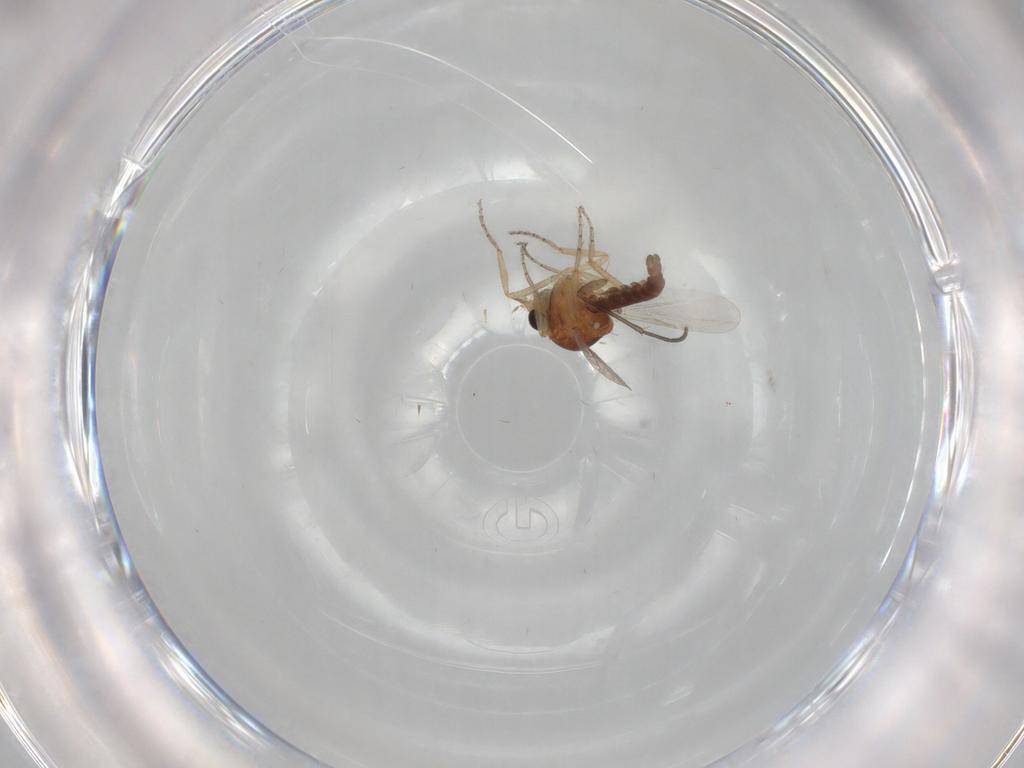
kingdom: Animalia
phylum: Arthropoda
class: Insecta
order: Diptera
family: Ceratopogonidae
